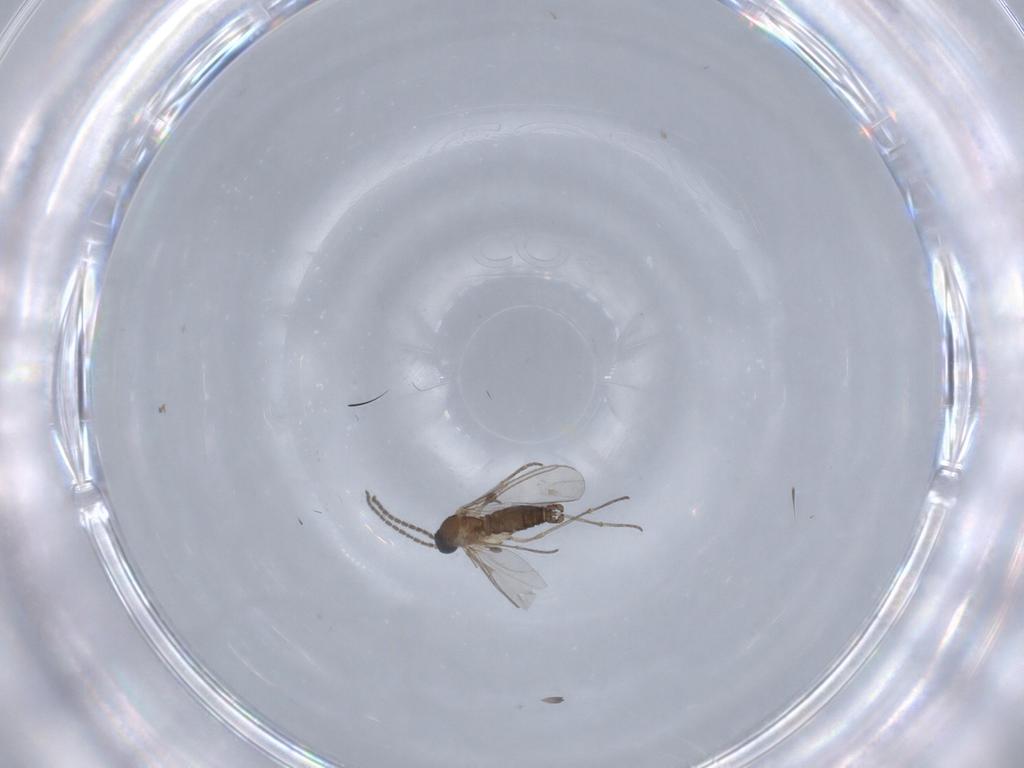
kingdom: Animalia
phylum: Arthropoda
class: Insecta
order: Diptera
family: Sciaridae
